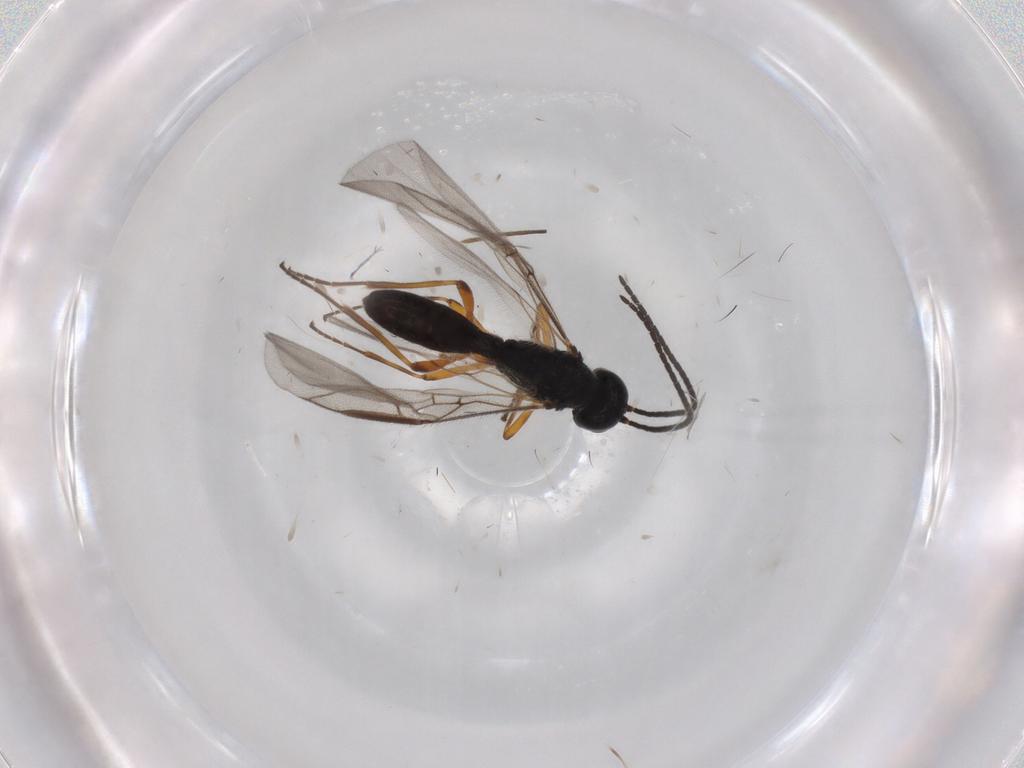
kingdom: Animalia
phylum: Arthropoda
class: Insecta
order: Hymenoptera
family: Braconidae
